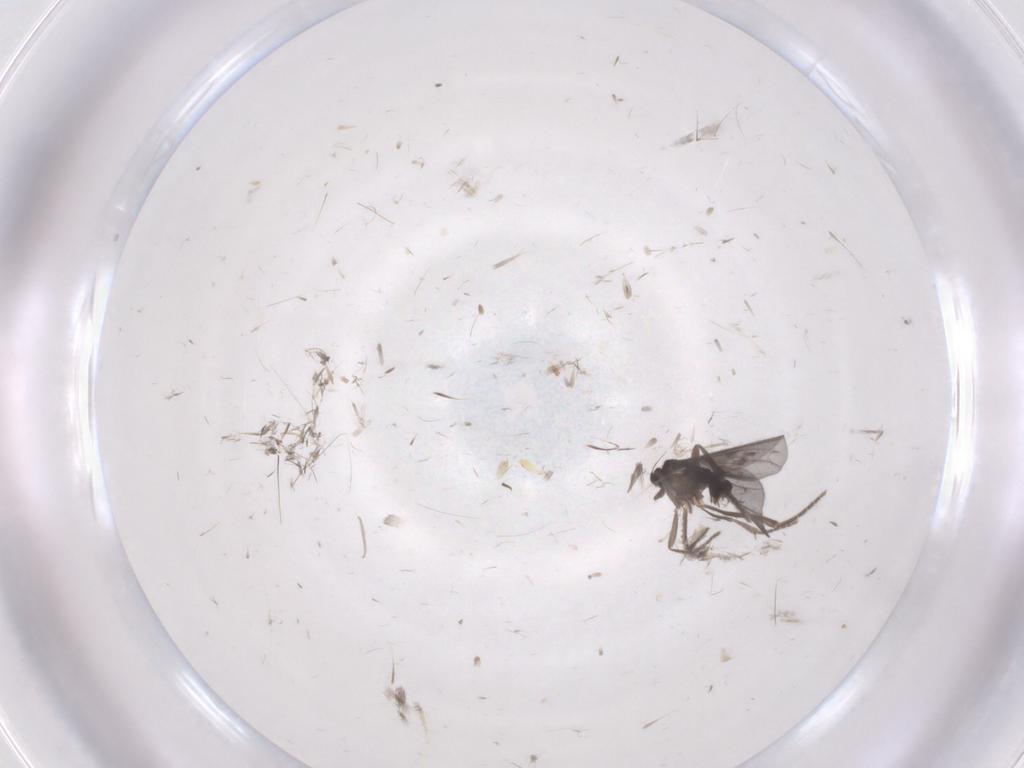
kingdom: Animalia
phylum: Arthropoda
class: Insecta
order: Diptera
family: Phoridae
